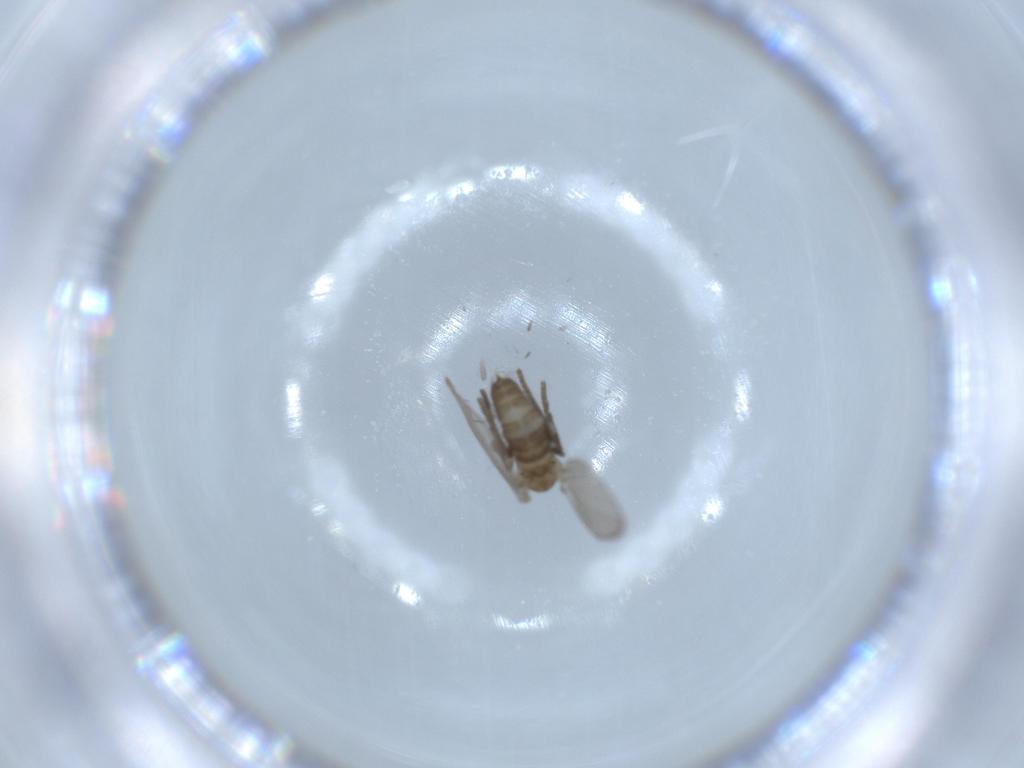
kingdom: Animalia
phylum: Arthropoda
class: Insecta
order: Diptera
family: Psychodidae
